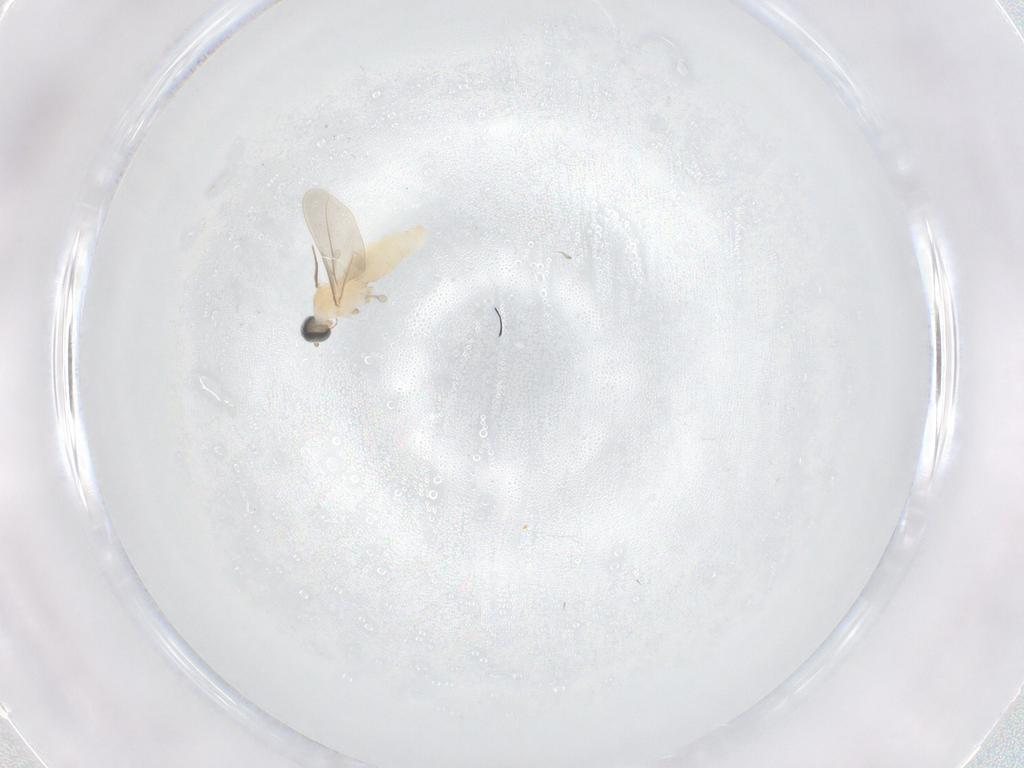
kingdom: Animalia
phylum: Arthropoda
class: Insecta
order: Diptera
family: Cecidomyiidae
